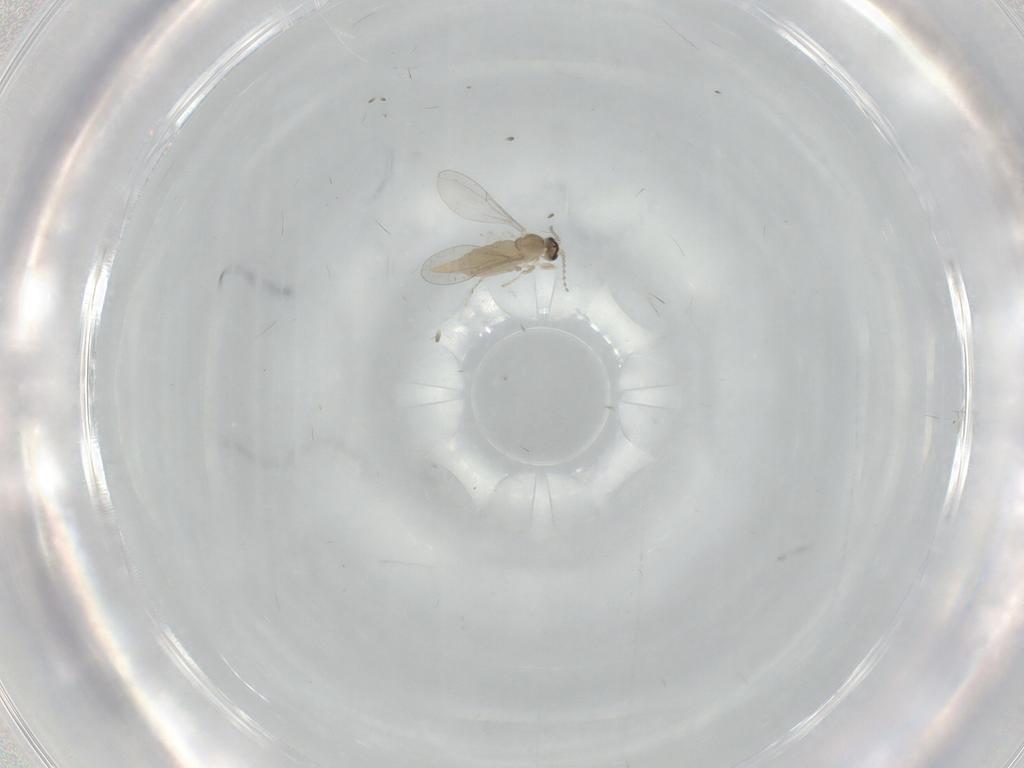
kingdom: Animalia
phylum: Arthropoda
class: Insecta
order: Diptera
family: Cecidomyiidae
